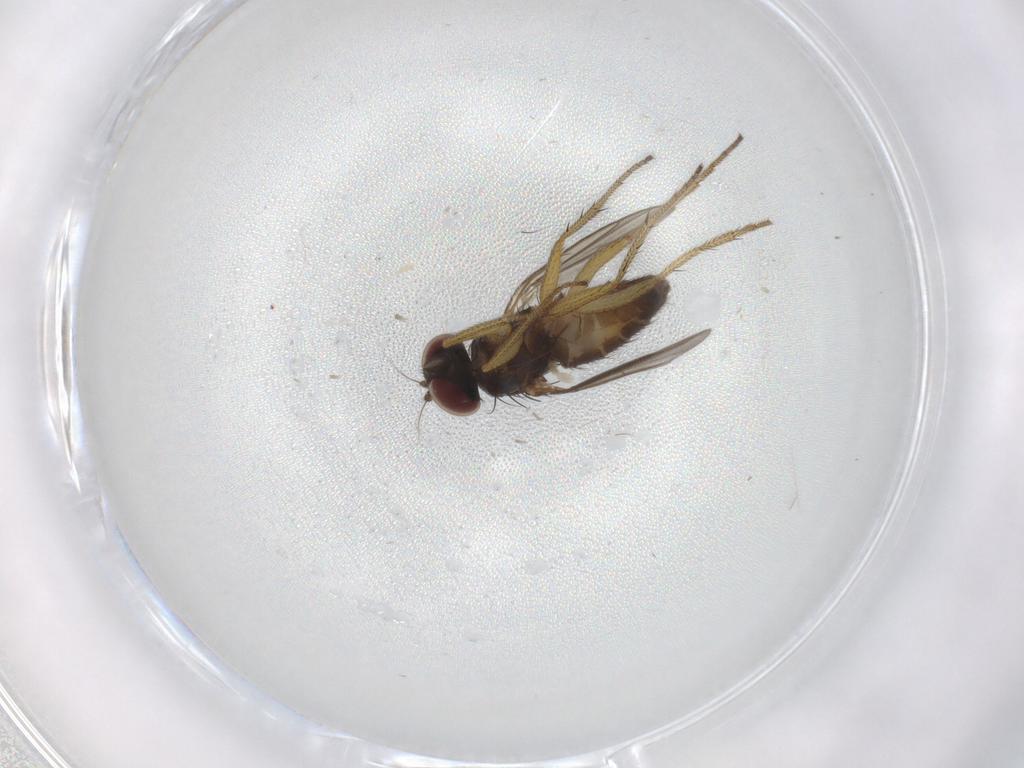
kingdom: Animalia
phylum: Arthropoda
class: Insecta
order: Diptera
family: Dolichopodidae
